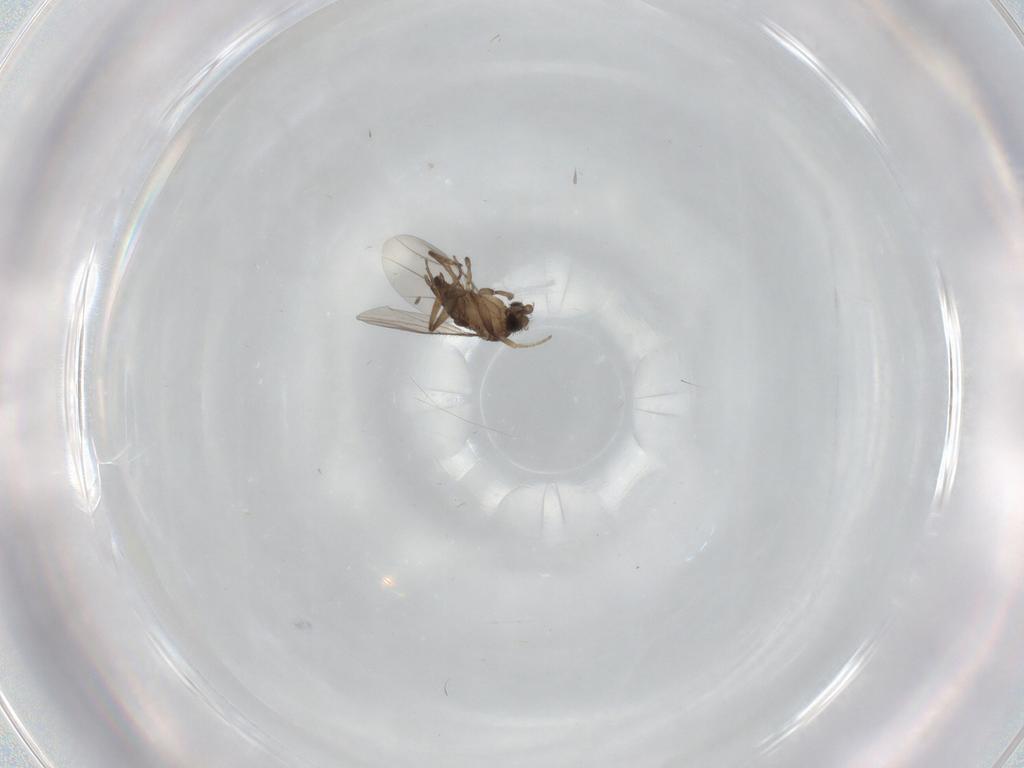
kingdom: Animalia
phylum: Arthropoda
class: Insecta
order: Diptera
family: Phoridae
